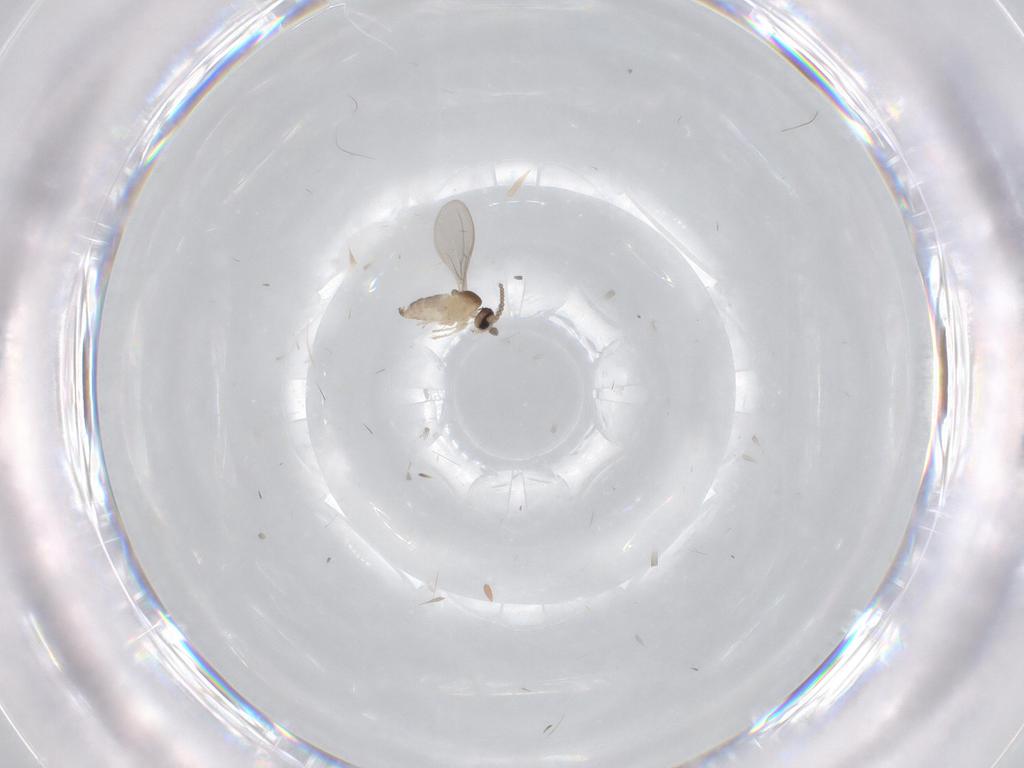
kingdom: Animalia
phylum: Arthropoda
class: Insecta
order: Diptera
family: Cecidomyiidae
